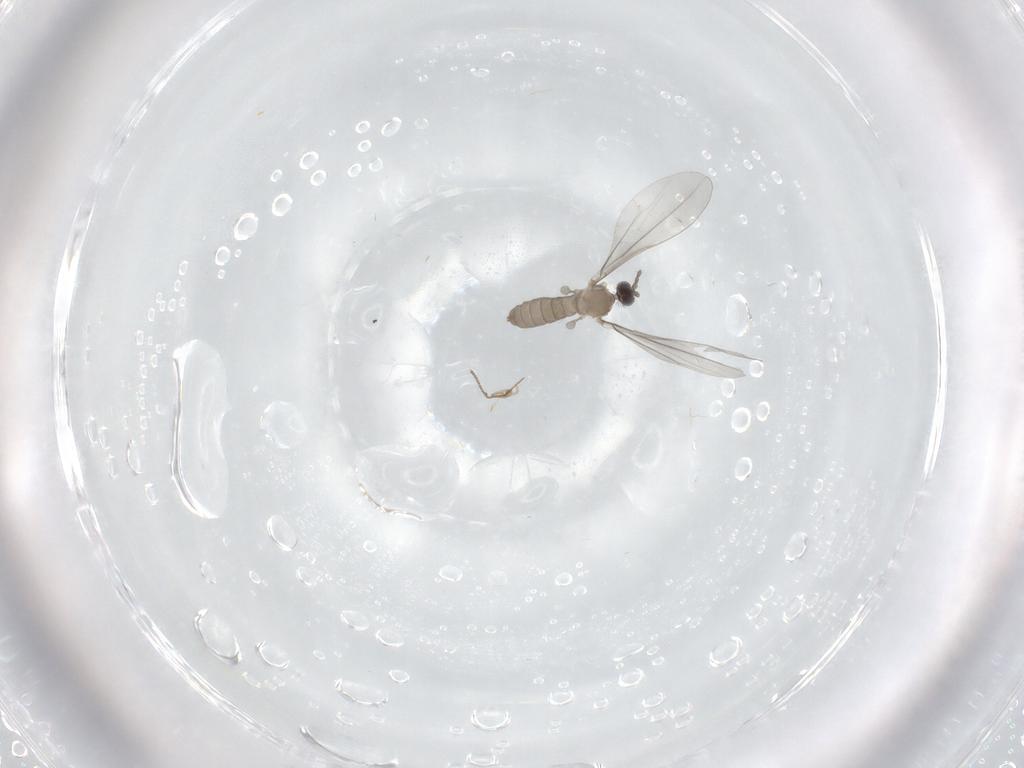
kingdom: Animalia
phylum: Arthropoda
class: Insecta
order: Diptera
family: Cecidomyiidae
